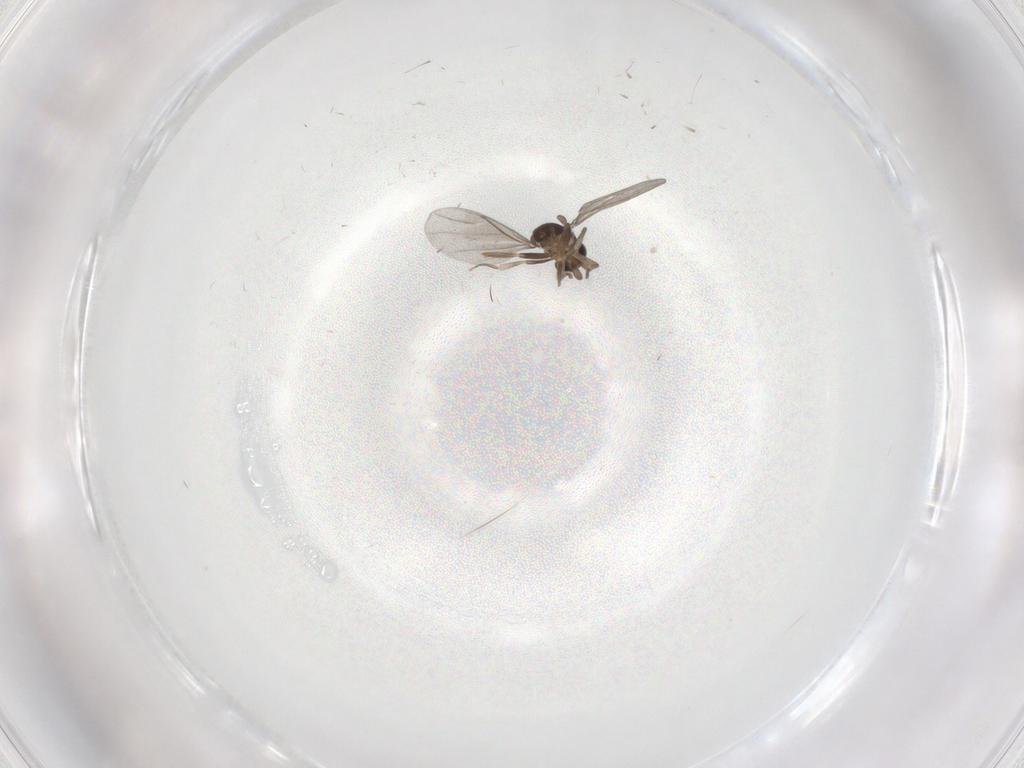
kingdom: Animalia
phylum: Arthropoda
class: Insecta
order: Diptera
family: Phoridae
